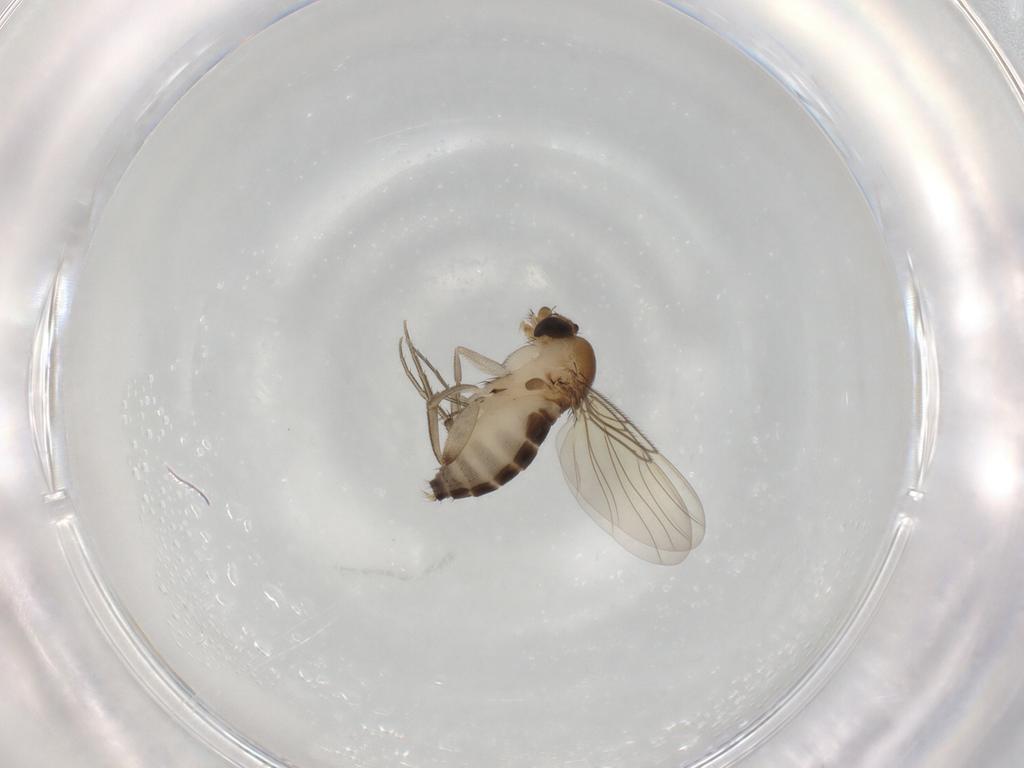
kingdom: Animalia
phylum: Arthropoda
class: Insecta
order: Diptera
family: Phoridae
